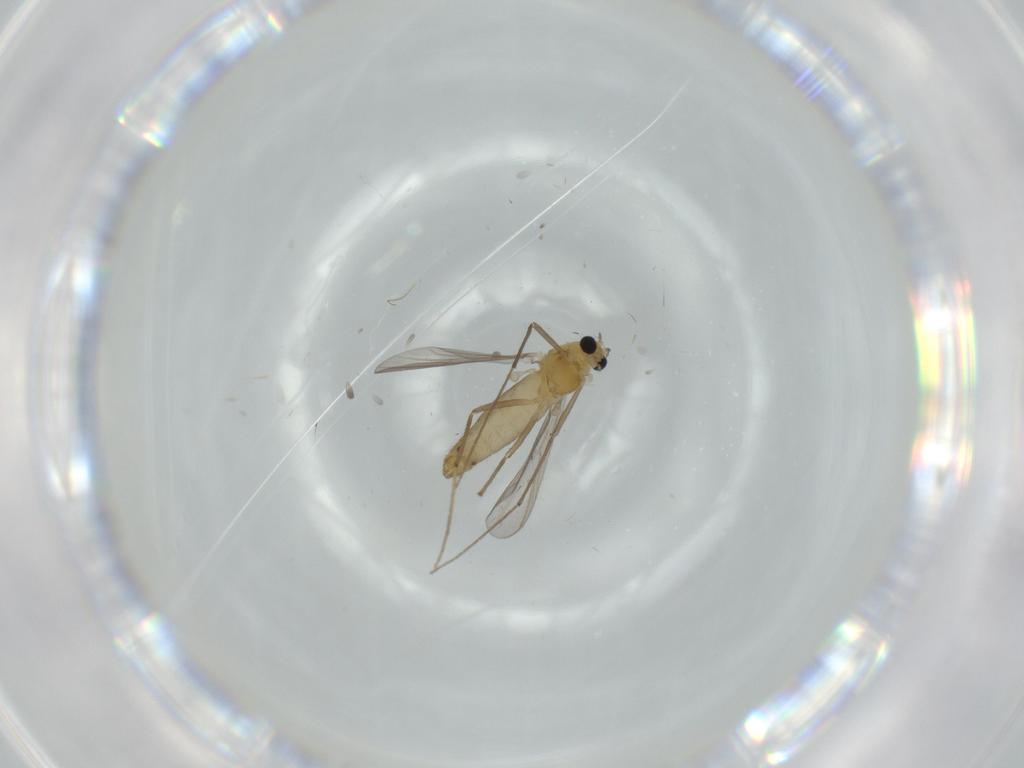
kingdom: Animalia
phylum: Arthropoda
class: Insecta
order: Diptera
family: Chironomidae
